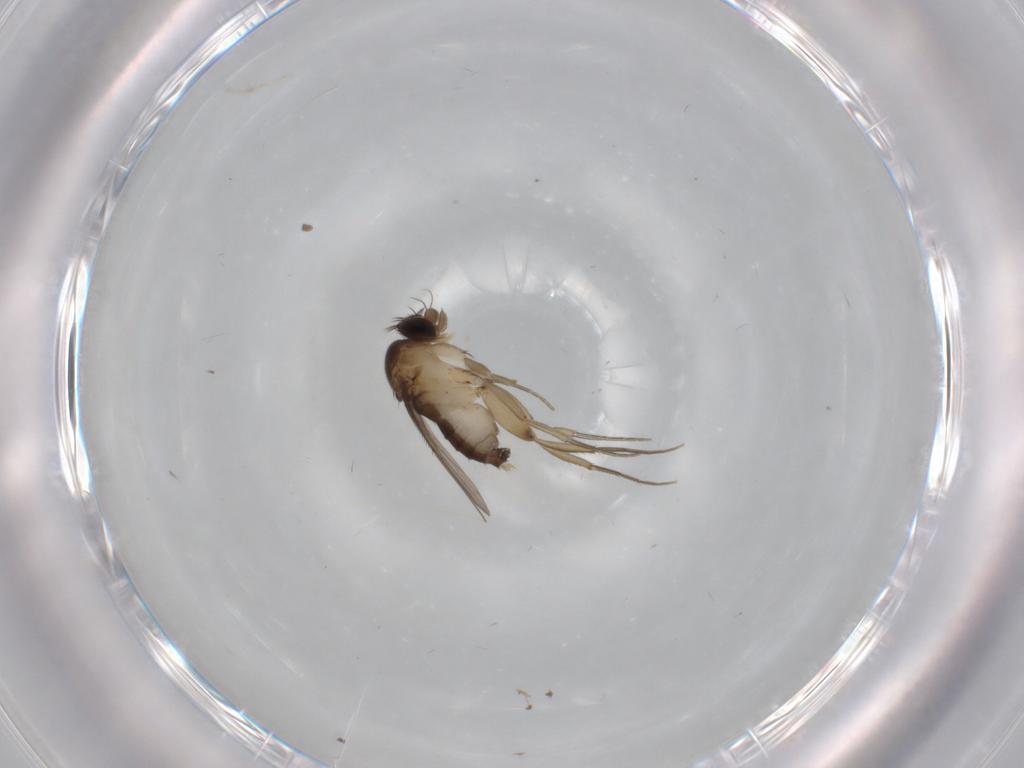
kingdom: Animalia
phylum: Arthropoda
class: Insecta
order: Diptera
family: Phoridae
